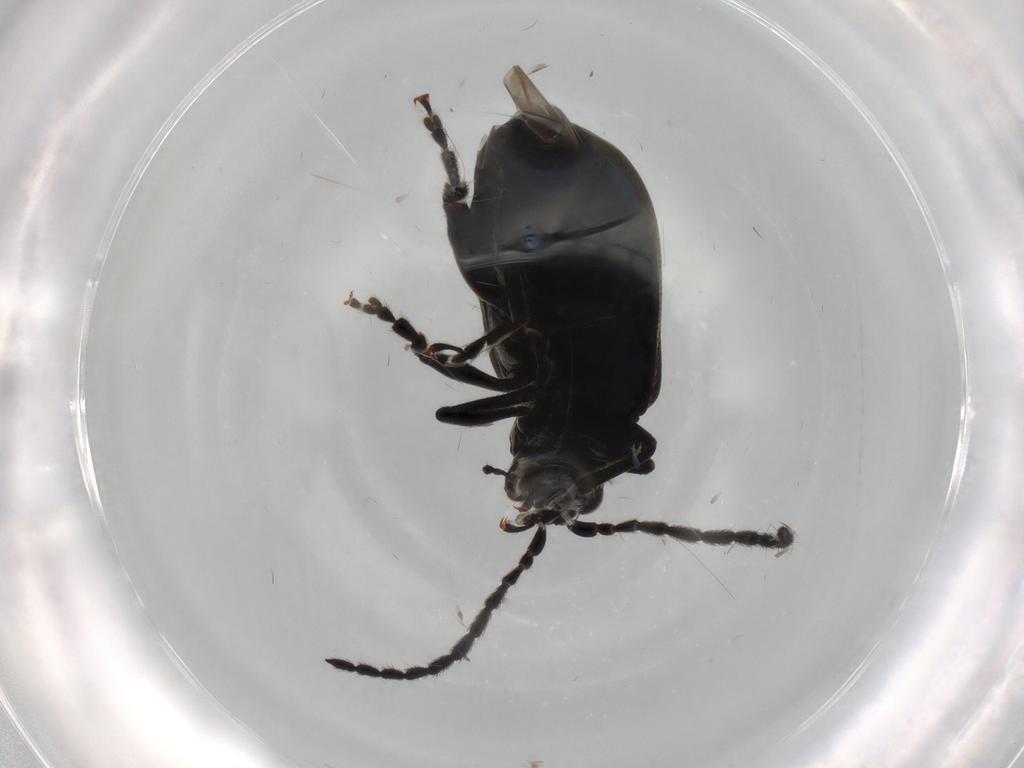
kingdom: Animalia
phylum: Arthropoda
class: Insecta
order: Coleoptera
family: Chrysomelidae
